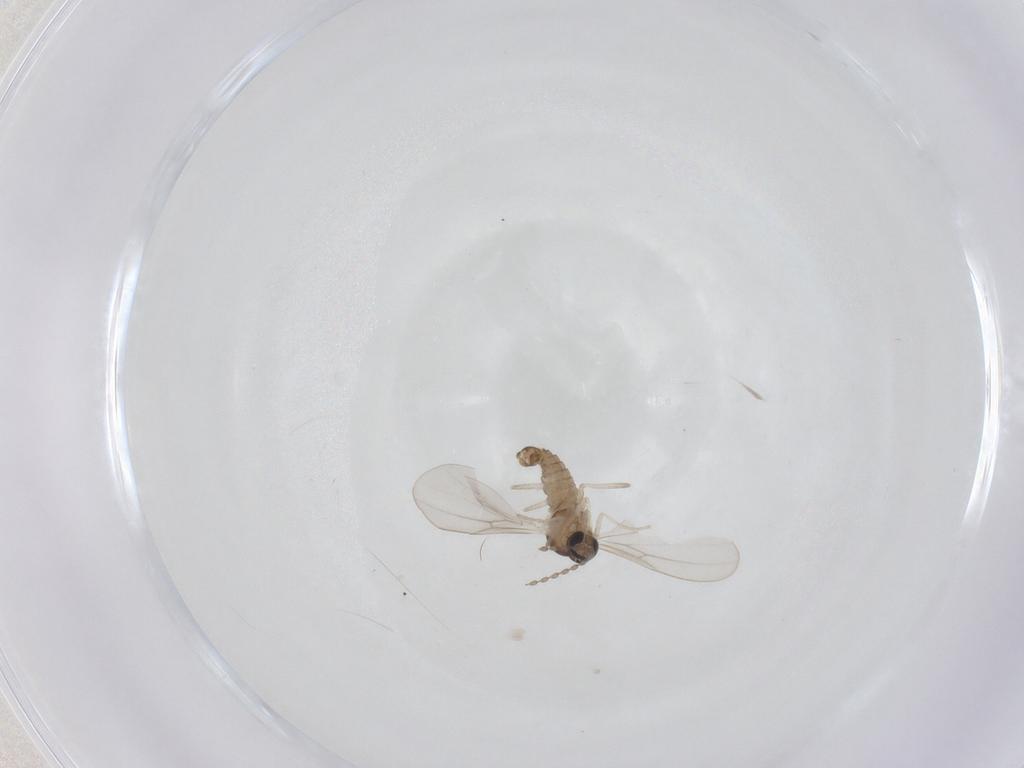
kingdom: Animalia
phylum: Arthropoda
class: Insecta
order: Diptera
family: Cecidomyiidae
